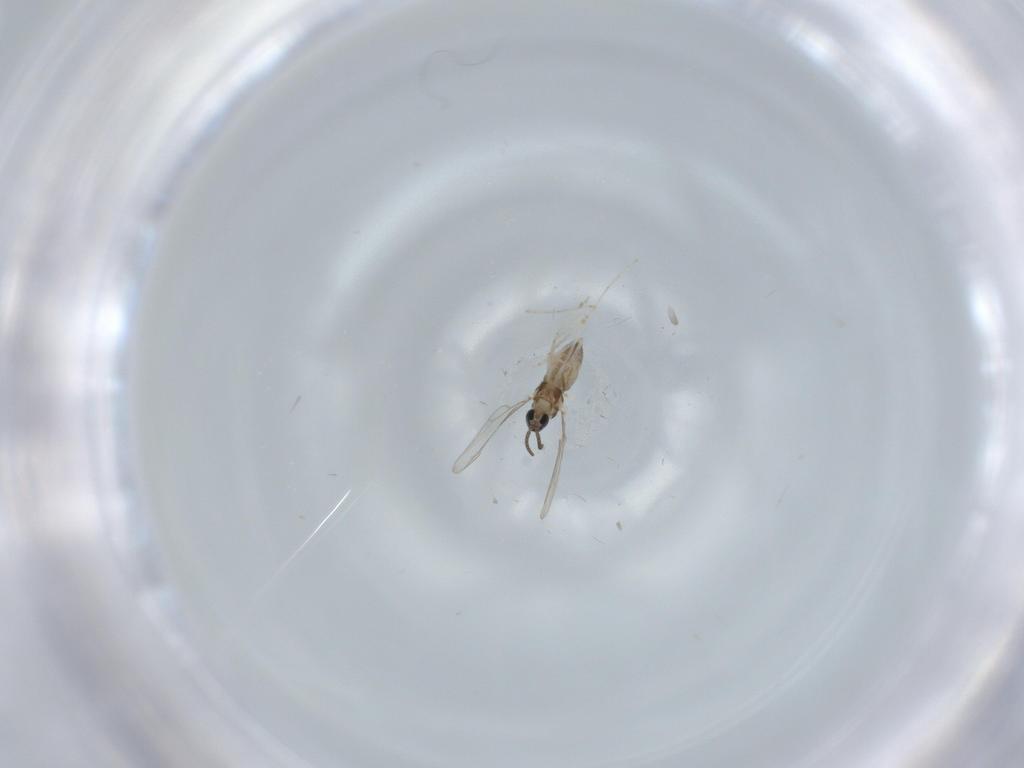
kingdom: Animalia
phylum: Arthropoda
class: Insecta
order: Diptera
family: Cecidomyiidae
